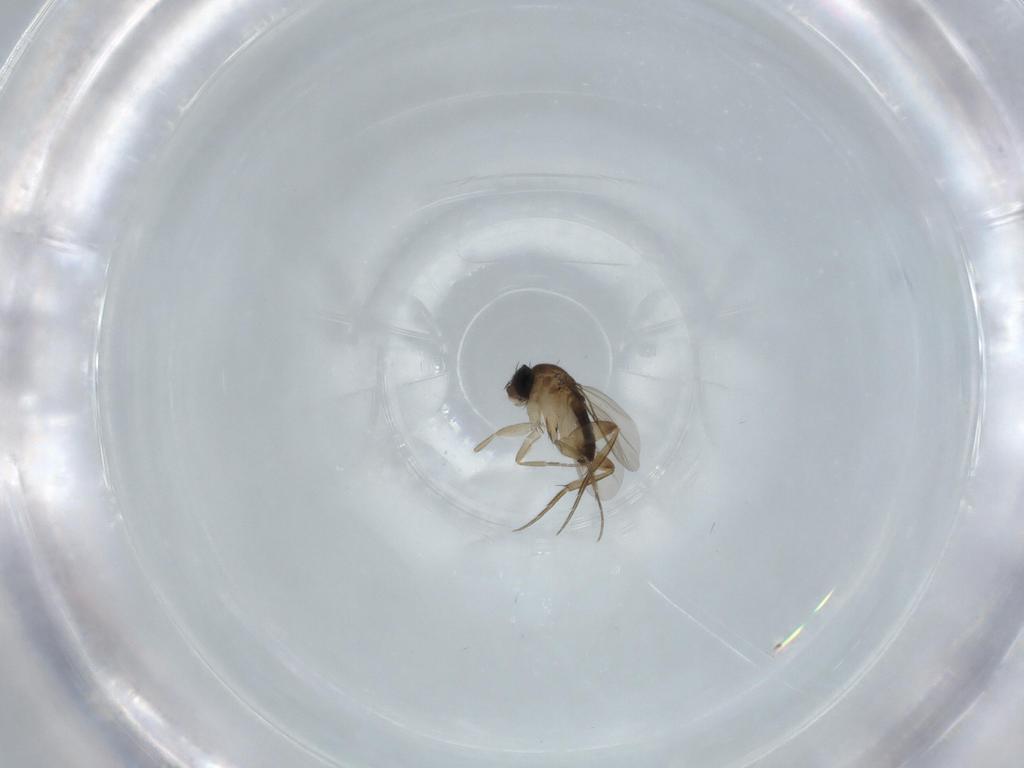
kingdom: Animalia
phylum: Arthropoda
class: Insecta
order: Diptera
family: Phoridae
